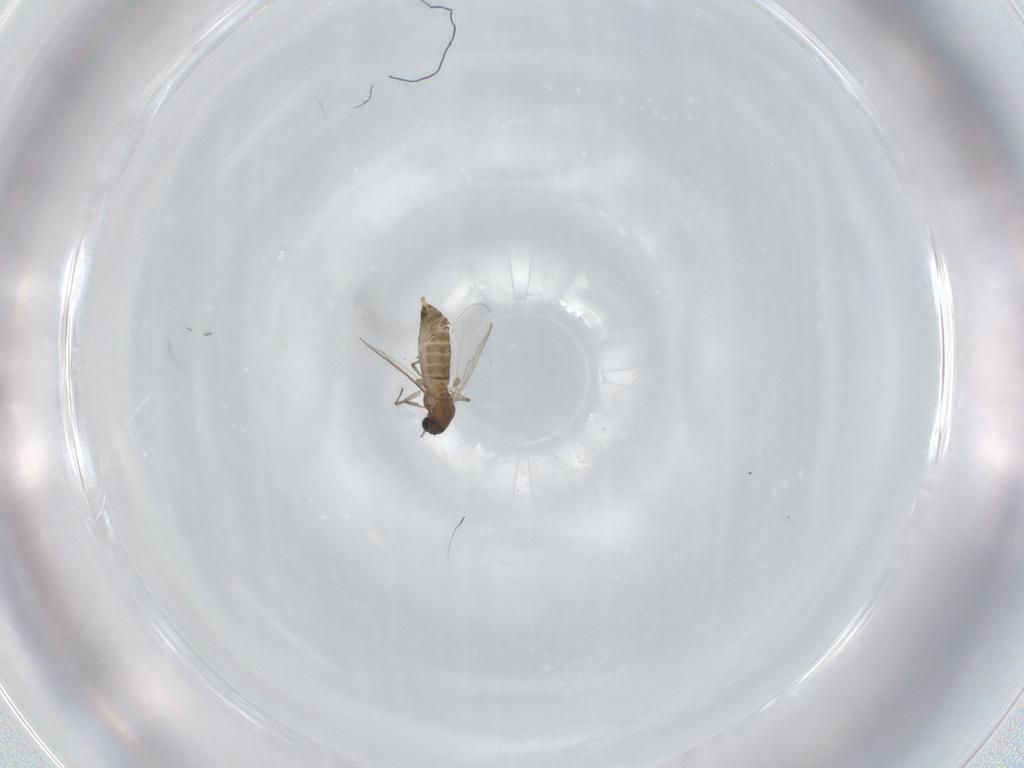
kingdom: Animalia
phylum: Arthropoda
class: Insecta
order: Diptera
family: Chironomidae
